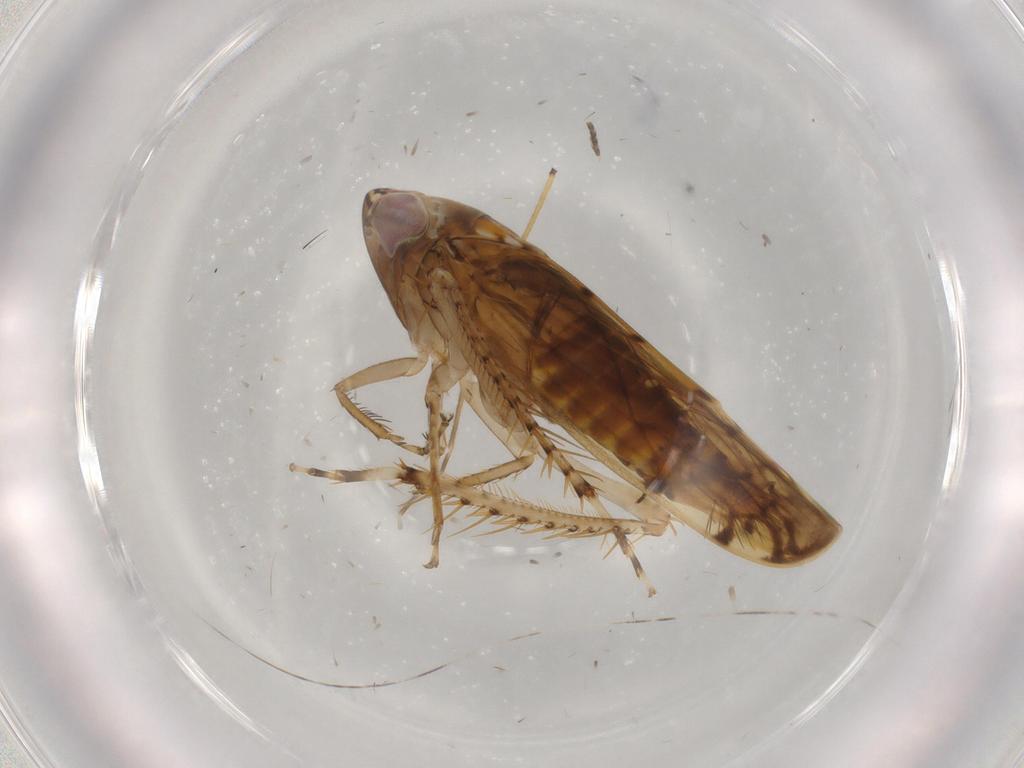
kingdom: Animalia
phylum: Arthropoda
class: Insecta
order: Hemiptera
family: Cicadellidae
